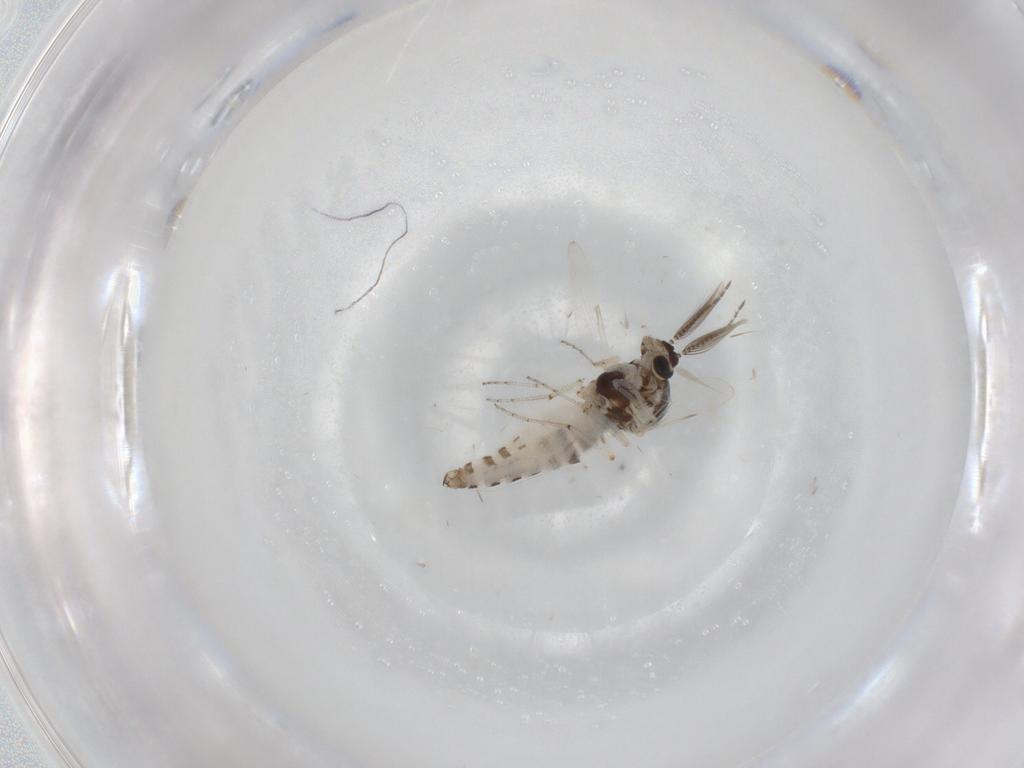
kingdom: Animalia
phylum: Arthropoda
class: Insecta
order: Diptera
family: Ceratopogonidae
